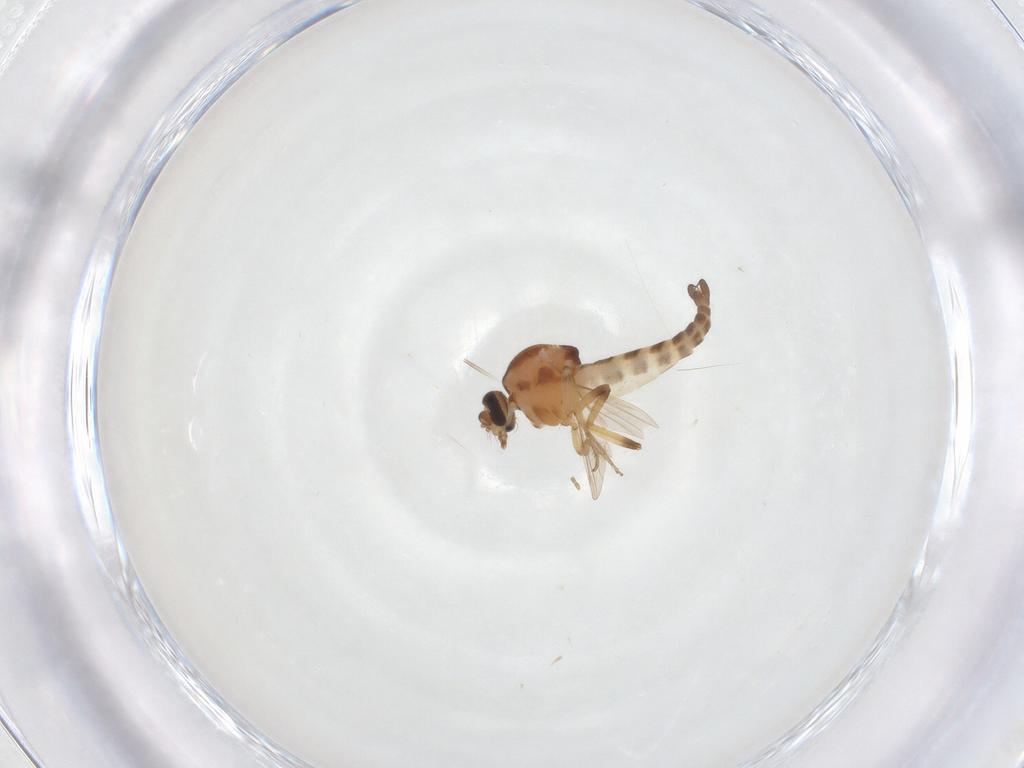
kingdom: Animalia
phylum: Arthropoda
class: Insecta
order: Diptera
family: Ceratopogonidae
